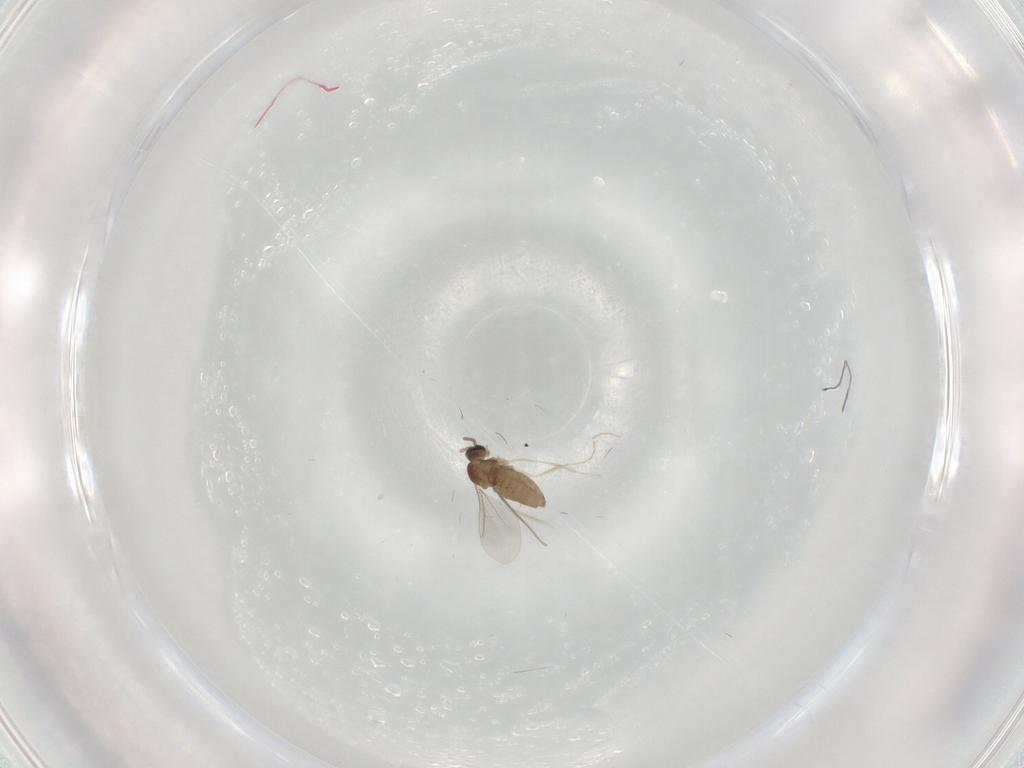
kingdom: Animalia
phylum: Arthropoda
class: Insecta
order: Diptera
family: Cecidomyiidae
